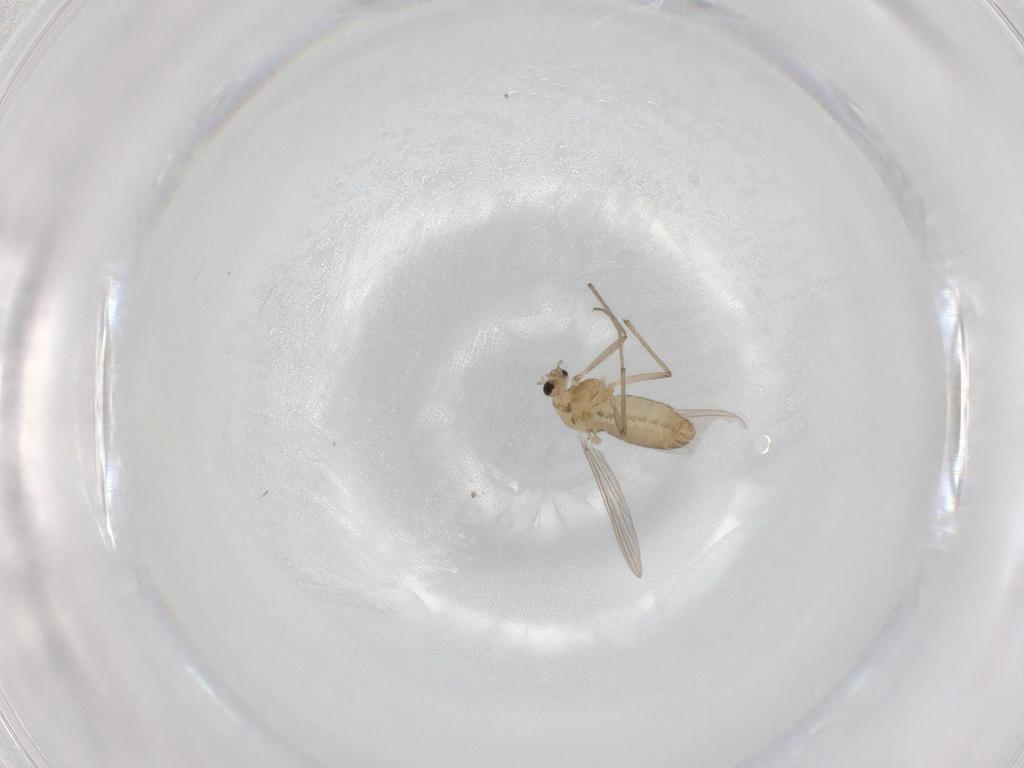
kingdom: Animalia
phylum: Arthropoda
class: Insecta
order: Diptera
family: Chironomidae
